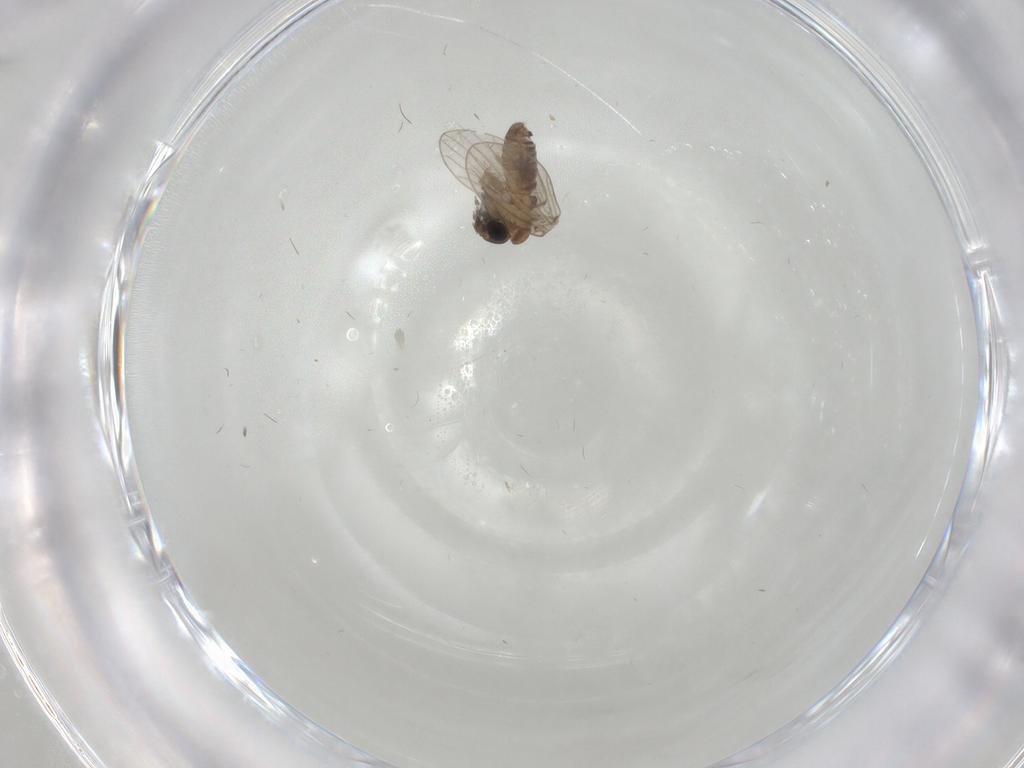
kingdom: Animalia
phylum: Arthropoda
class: Insecta
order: Diptera
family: Psychodidae
